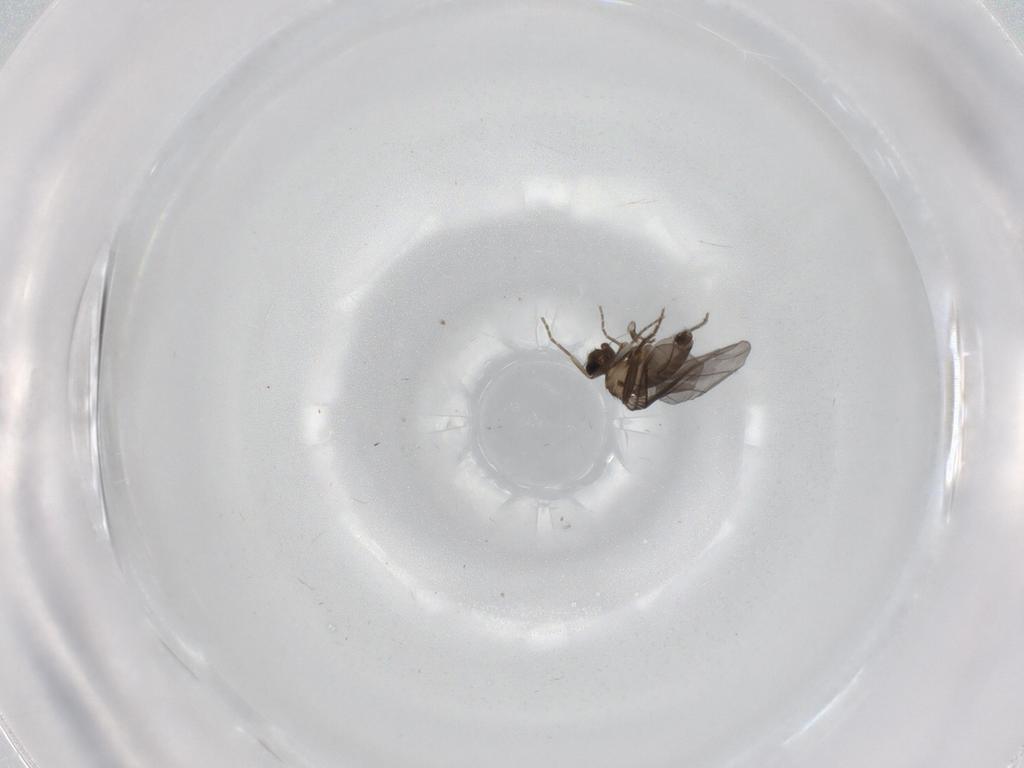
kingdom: Animalia
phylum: Arthropoda
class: Insecta
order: Diptera
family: Phoridae
